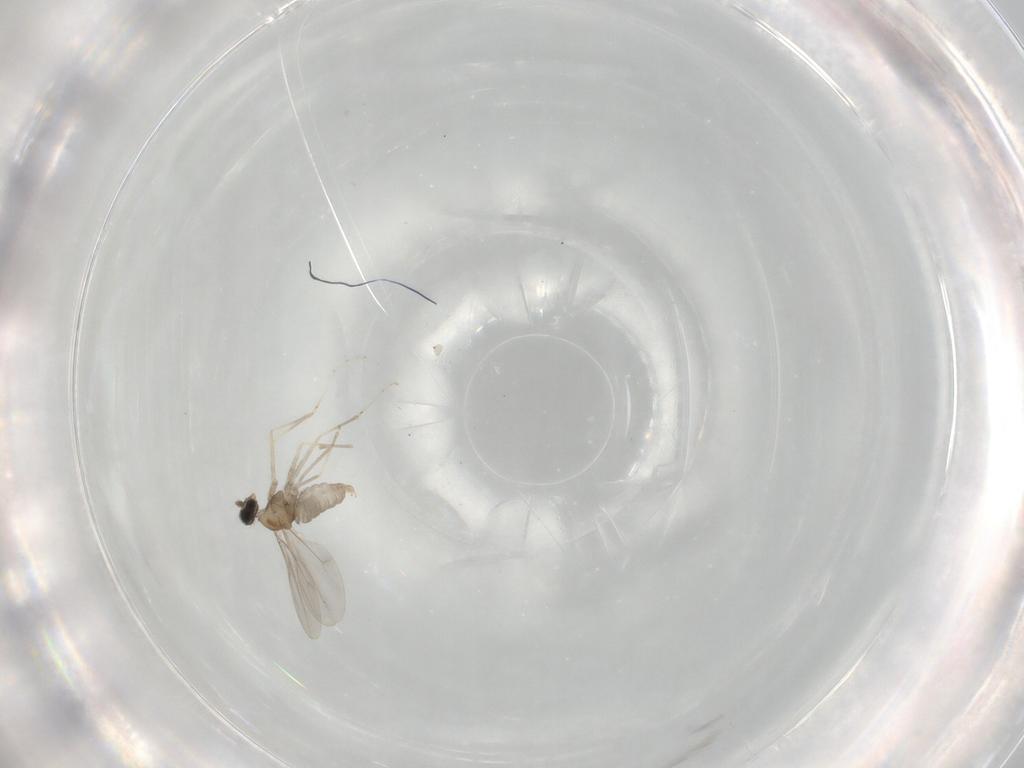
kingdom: Animalia
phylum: Arthropoda
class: Insecta
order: Diptera
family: Cecidomyiidae
